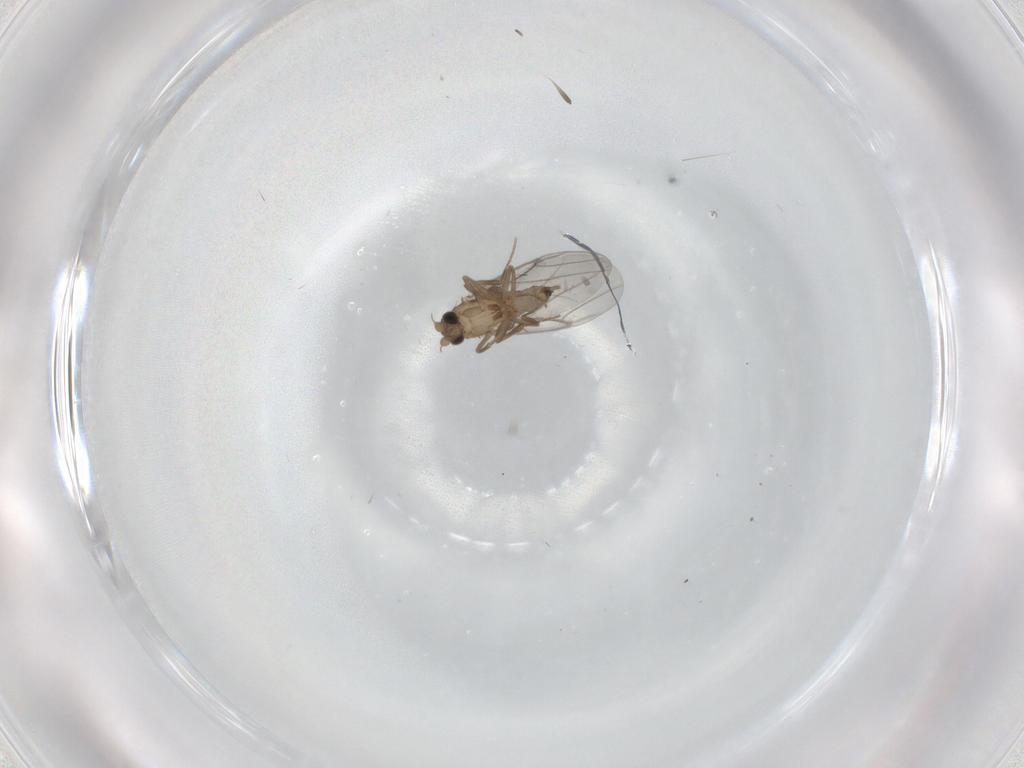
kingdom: Animalia
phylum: Arthropoda
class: Insecta
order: Diptera
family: Ceratopogonidae
